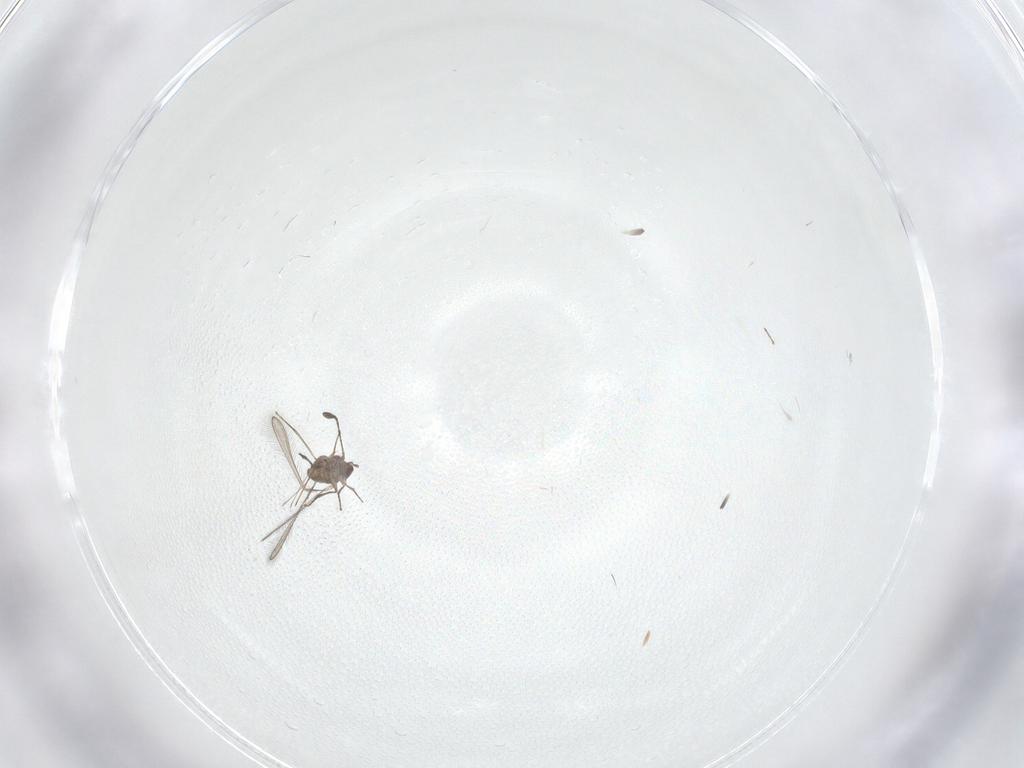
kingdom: Animalia
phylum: Arthropoda
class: Insecta
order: Hymenoptera
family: Mymaridae
